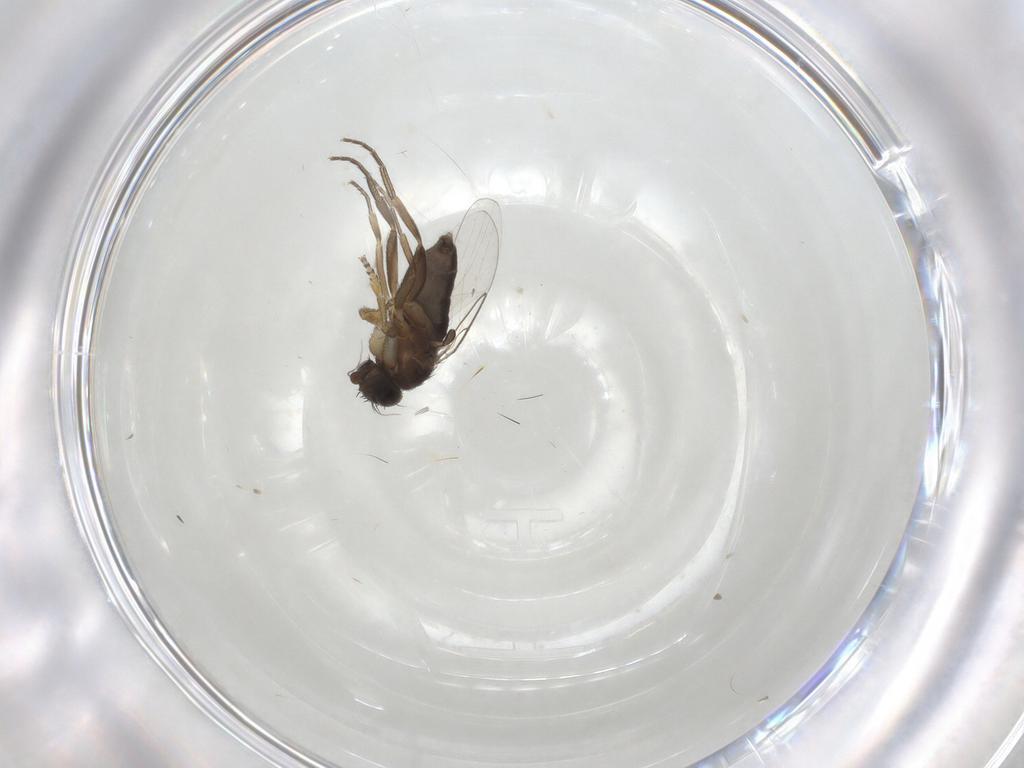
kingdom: Animalia
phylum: Arthropoda
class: Insecta
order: Diptera
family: Phoridae
